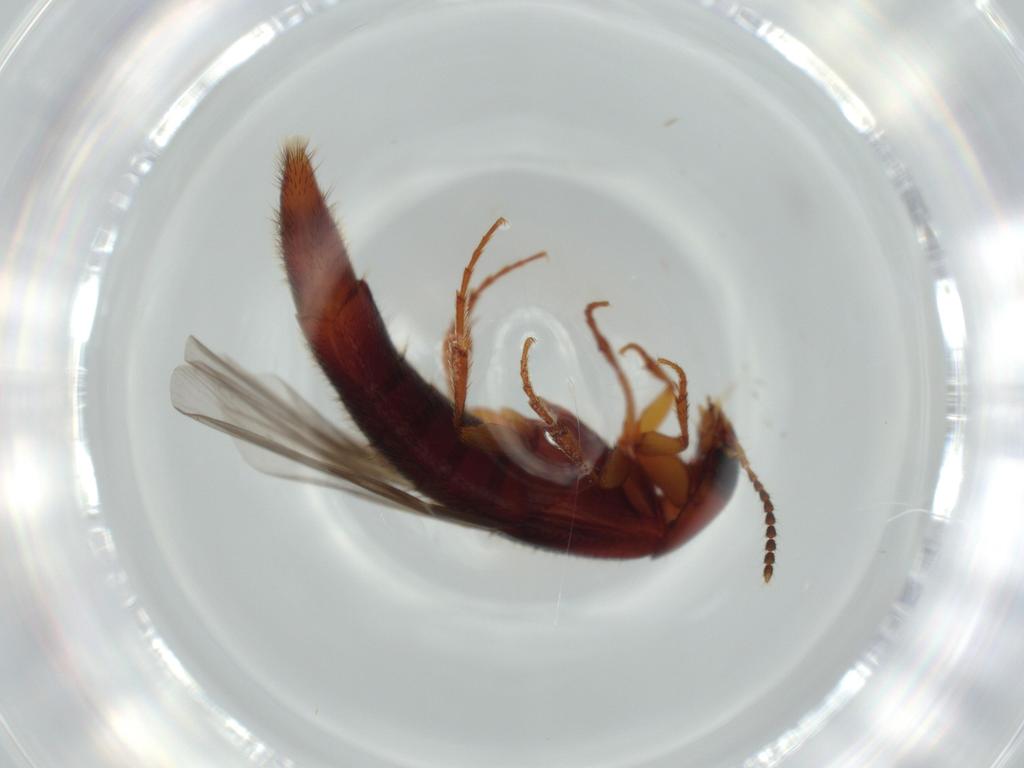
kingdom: Animalia
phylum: Arthropoda
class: Insecta
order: Coleoptera
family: Staphylinidae
